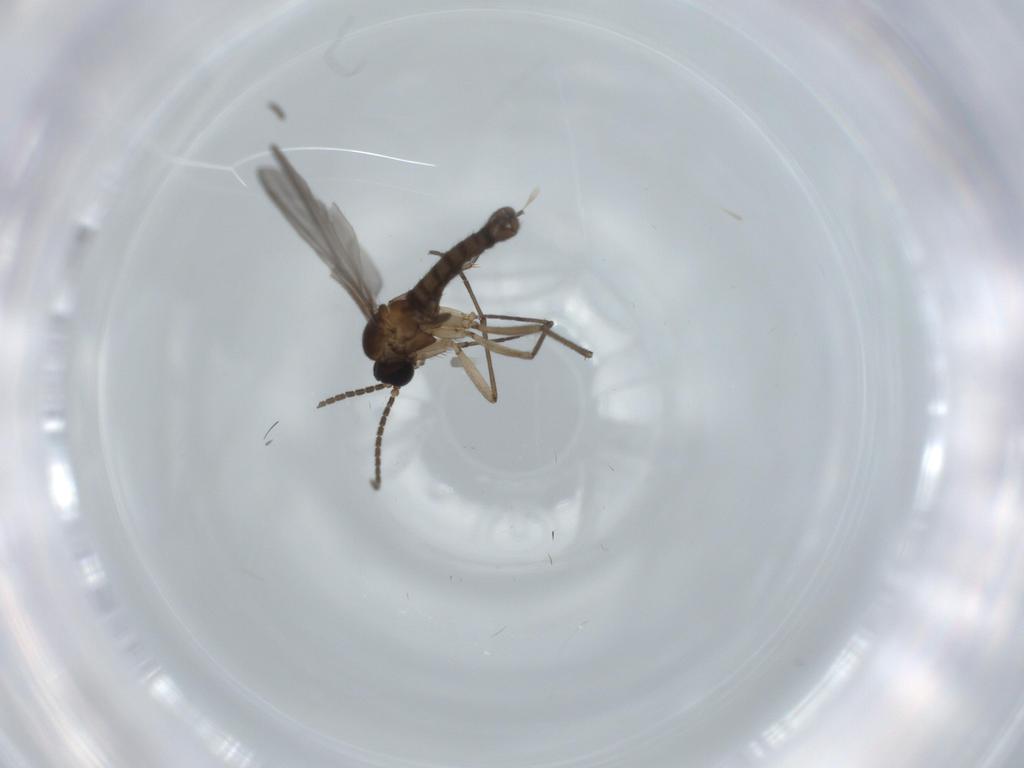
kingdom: Animalia
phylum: Arthropoda
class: Insecta
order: Diptera
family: Sciaridae
